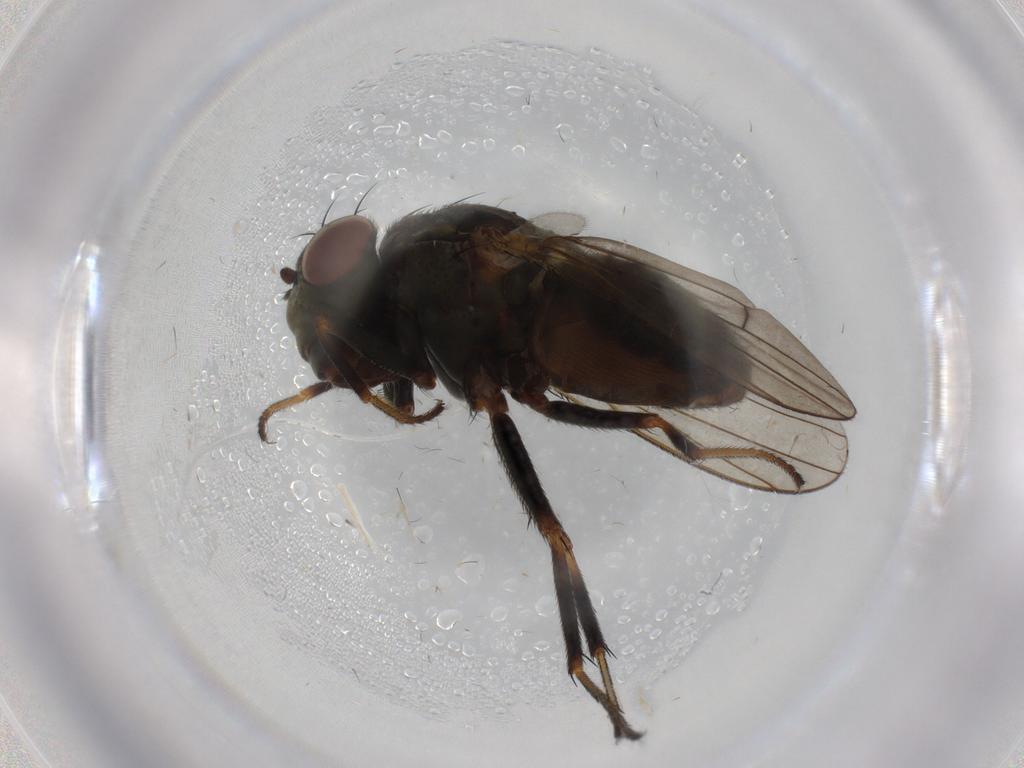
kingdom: Animalia
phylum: Arthropoda
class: Insecta
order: Diptera
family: Ephydridae
